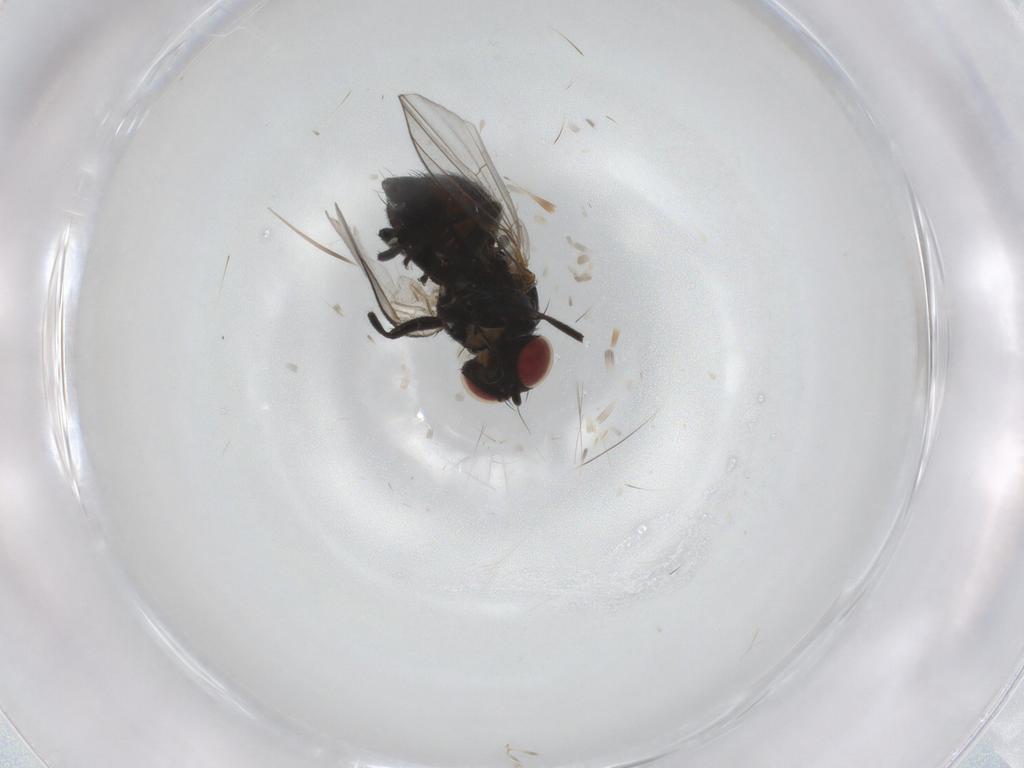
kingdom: Animalia
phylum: Arthropoda
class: Insecta
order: Diptera
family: Agromyzidae
